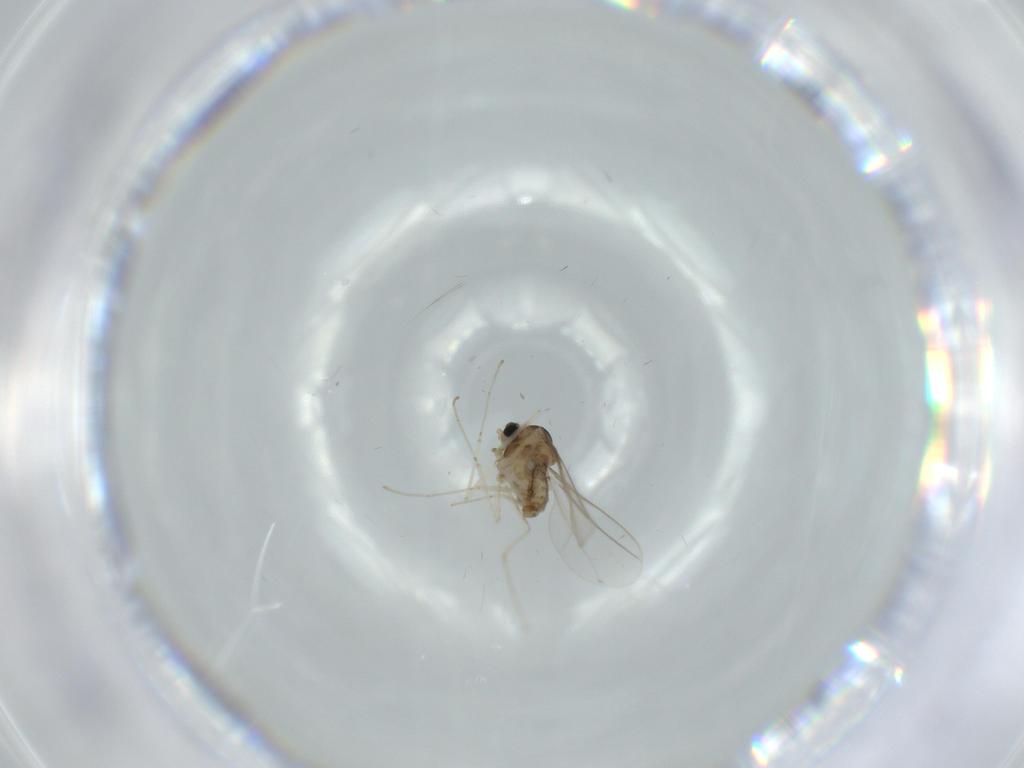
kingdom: Animalia
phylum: Arthropoda
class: Insecta
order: Diptera
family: Cecidomyiidae
